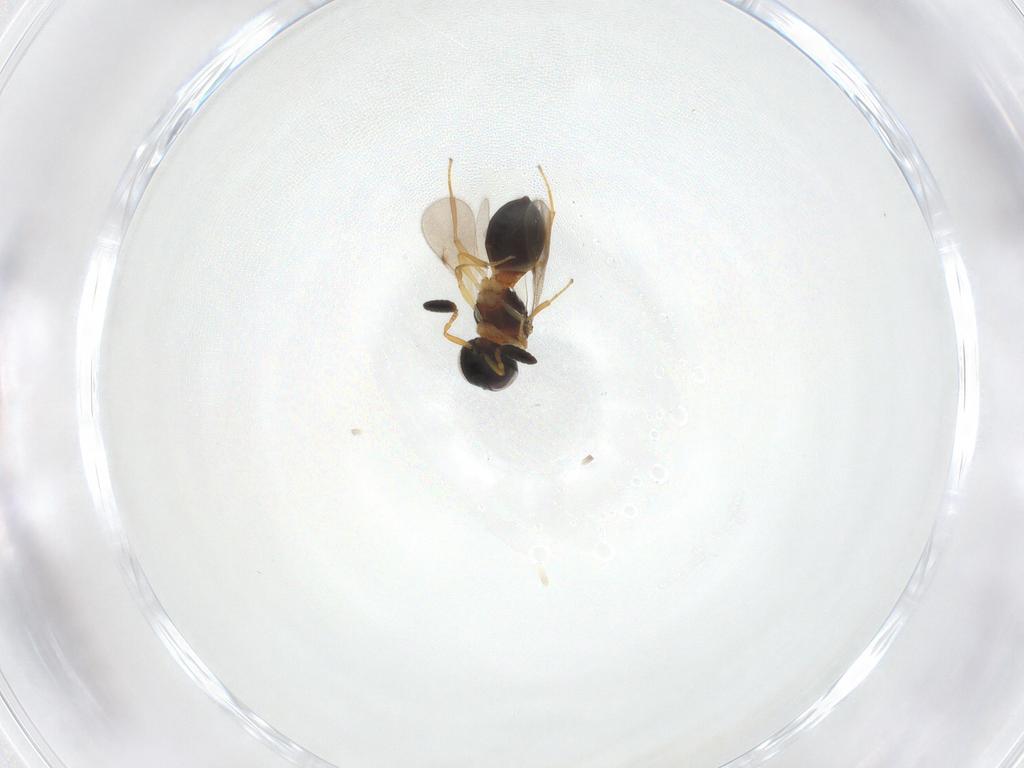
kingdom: Animalia
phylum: Arthropoda
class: Insecta
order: Hymenoptera
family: Scelionidae
